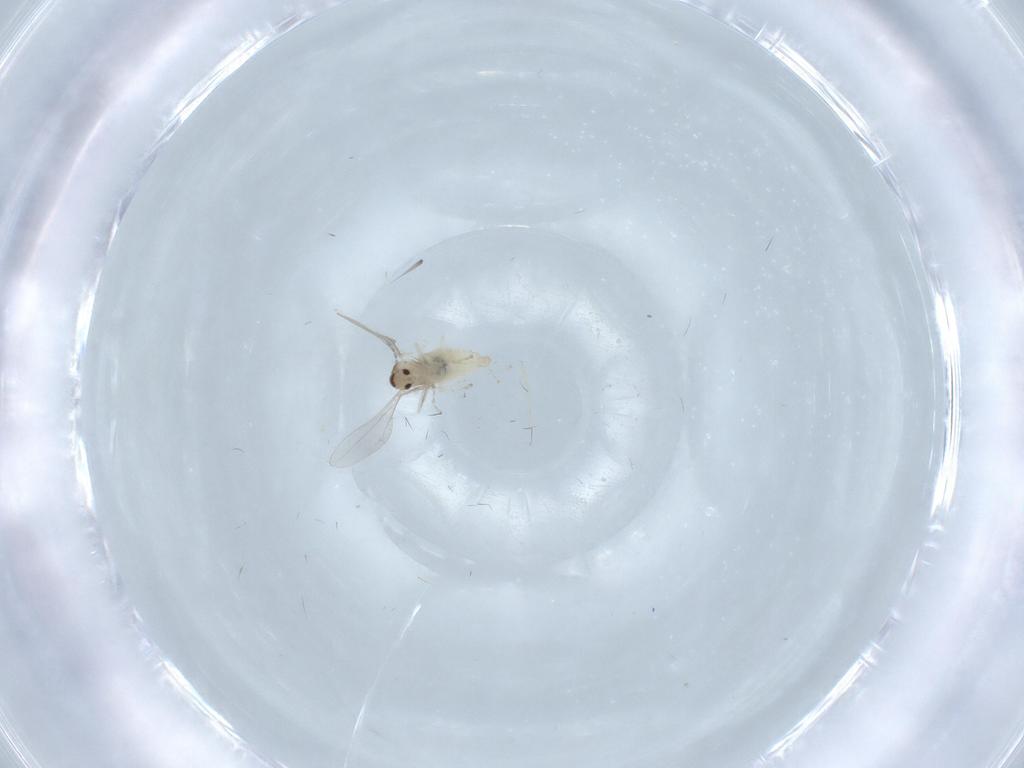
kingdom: Animalia
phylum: Arthropoda
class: Insecta
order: Diptera
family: Cecidomyiidae
